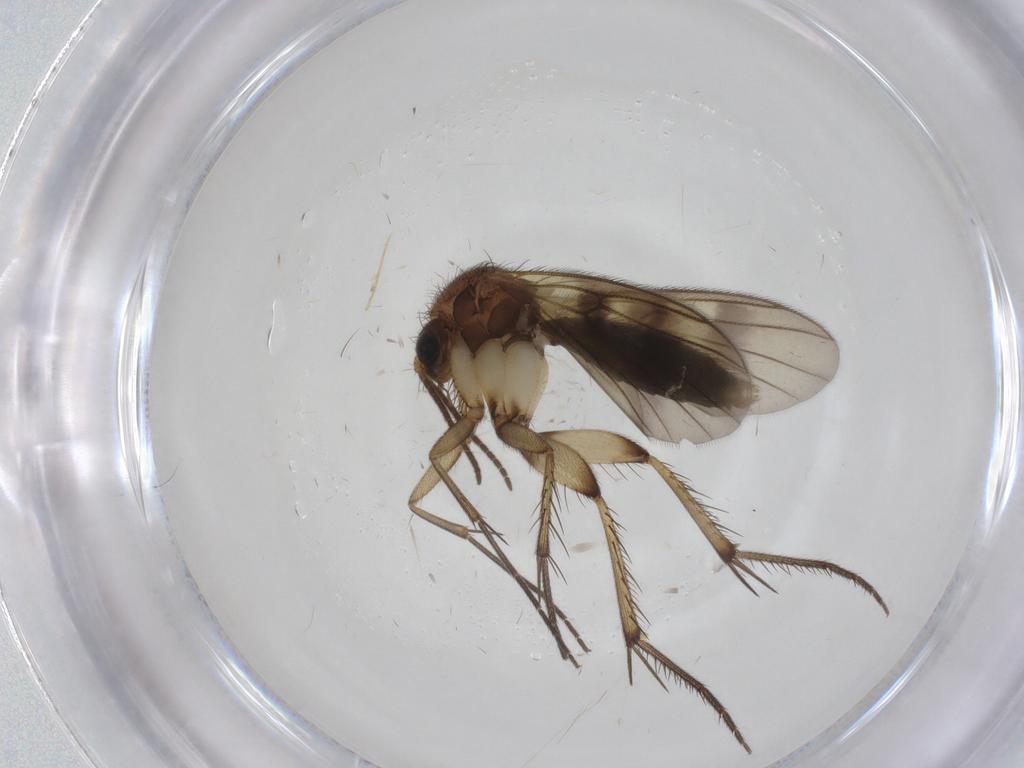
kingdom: Animalia
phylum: Arthropoda
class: Insecta
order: Diptera
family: Mycetophilidae
